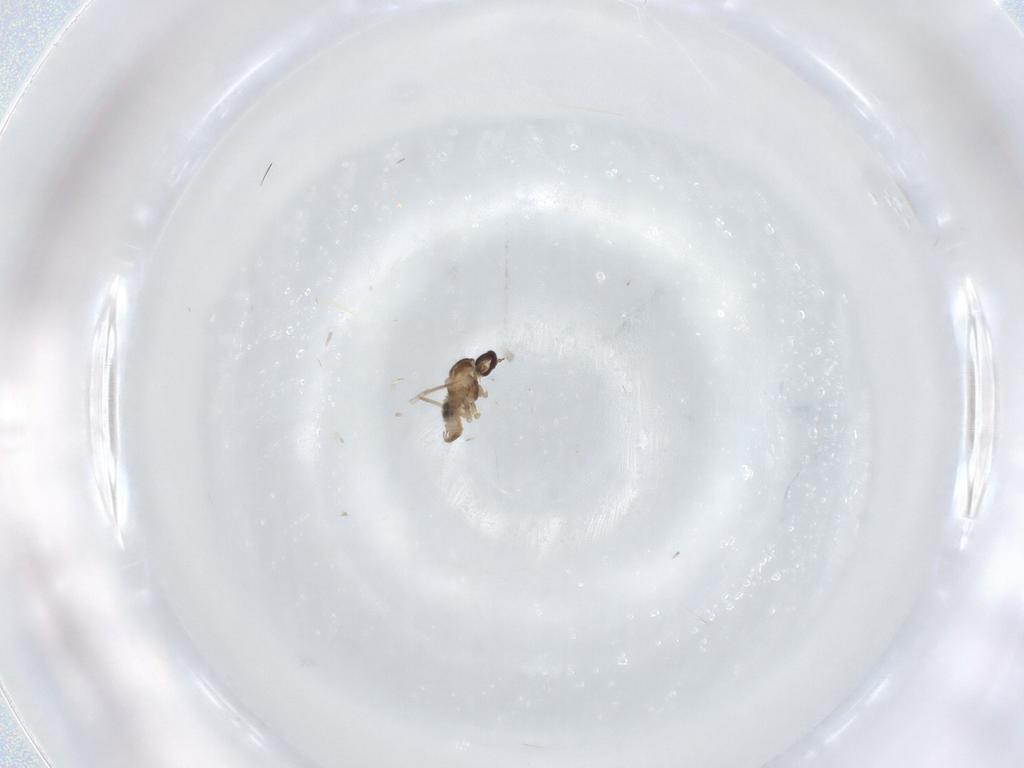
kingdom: Animalia
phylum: Arthropoda
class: Insecta
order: Diptera
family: Cecidomyiidae
